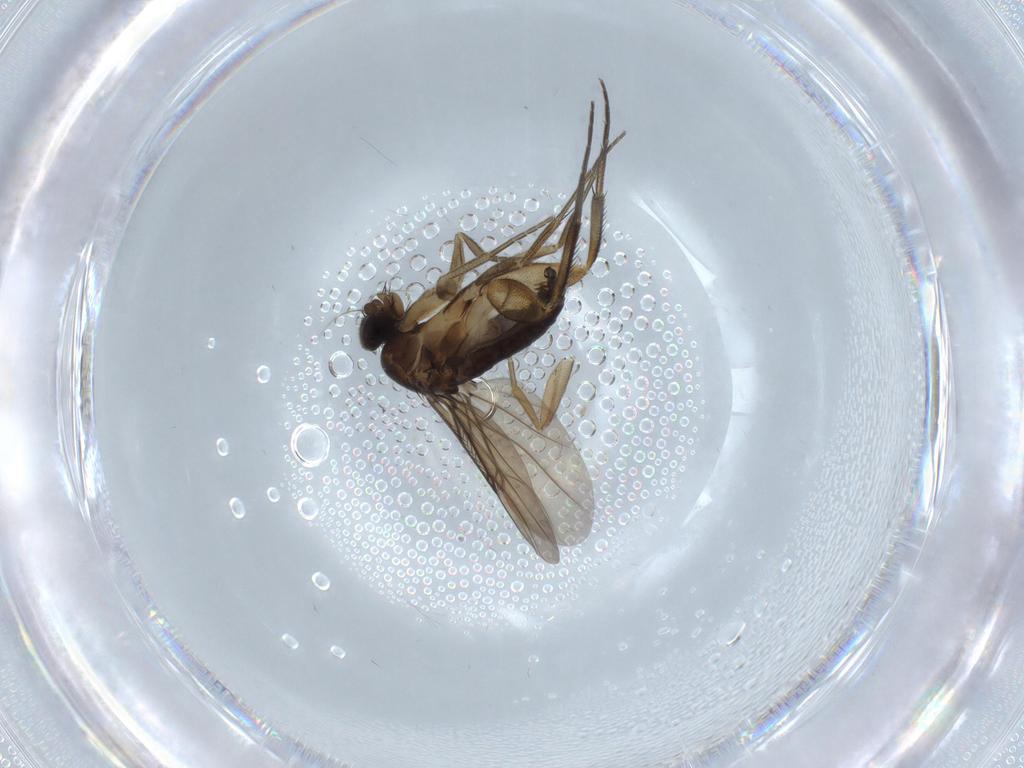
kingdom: Animalia
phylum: Arthropoda
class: Insecta
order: Diptera
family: Phoridae
